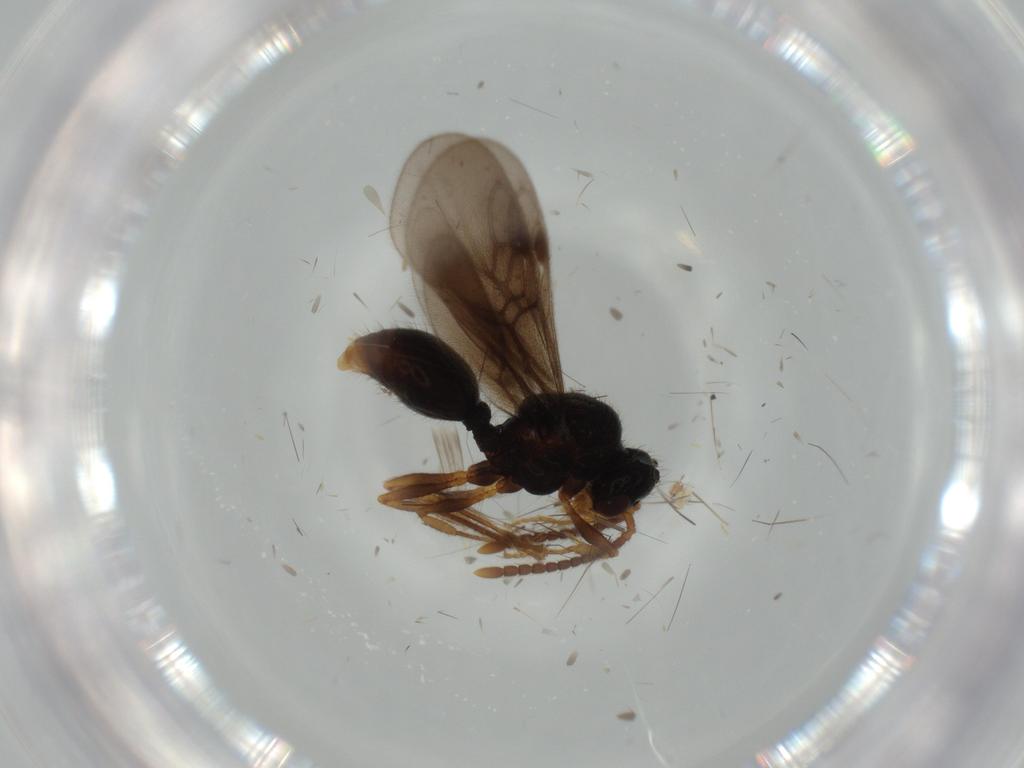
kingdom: Animalia
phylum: Arthropoda
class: Insecta
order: Hymenoptera
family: Formicidae
